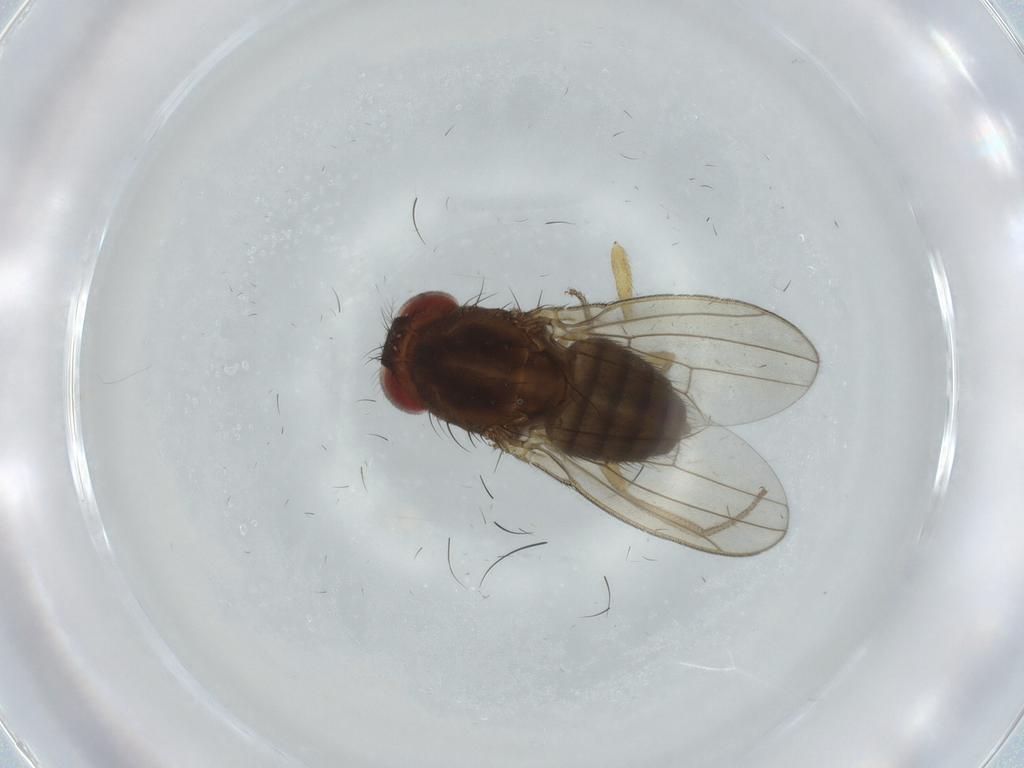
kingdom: Animalia
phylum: Arthropoda
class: Insecta
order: Diptera
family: Drosophilidae
